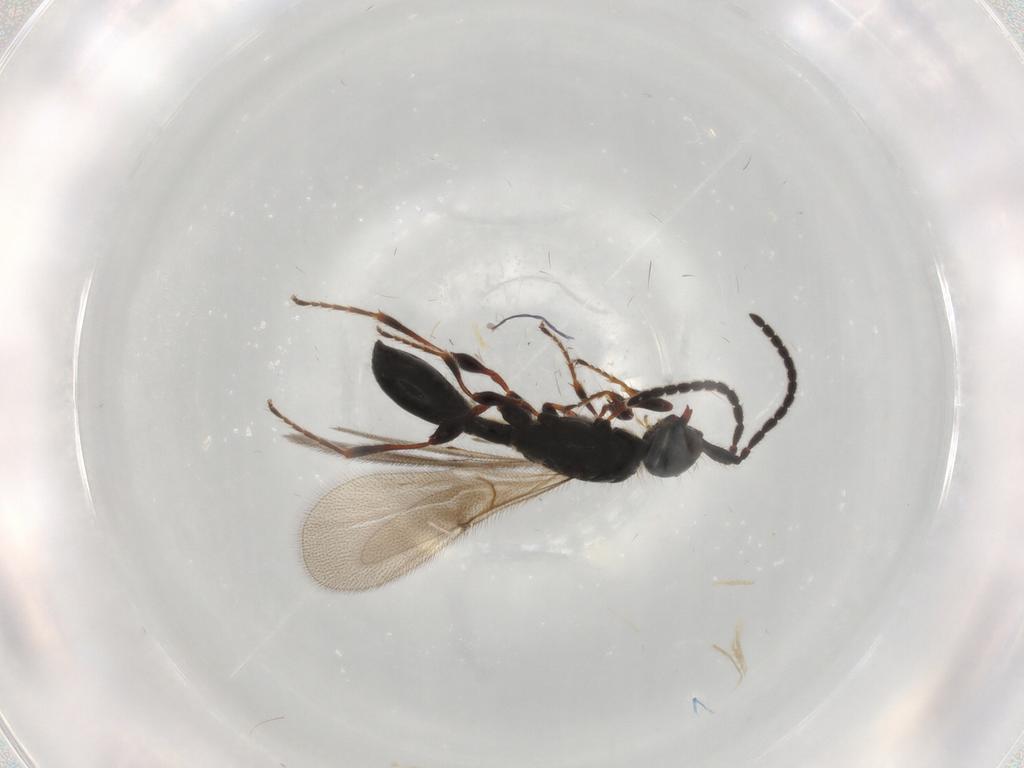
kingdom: Animalia
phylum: Arthropoda
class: Insecta
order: Hymenoptera
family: Diapriidae
